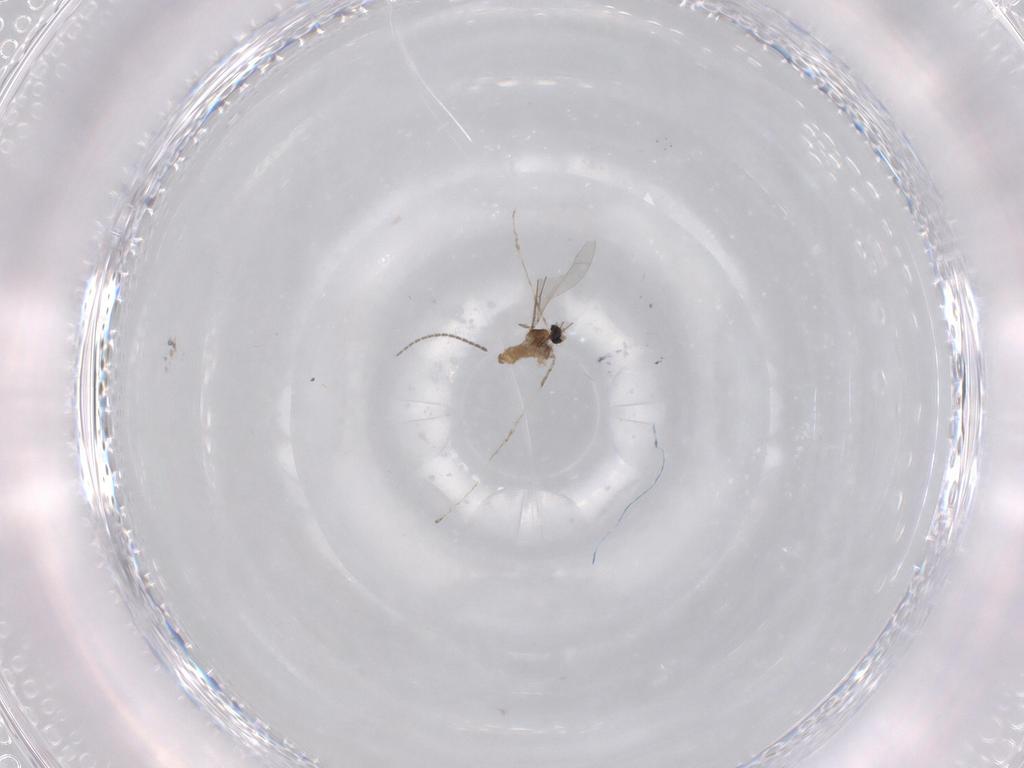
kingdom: Animalia
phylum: Arthropoda
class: Insecta
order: Diptera
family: Sciaridae
